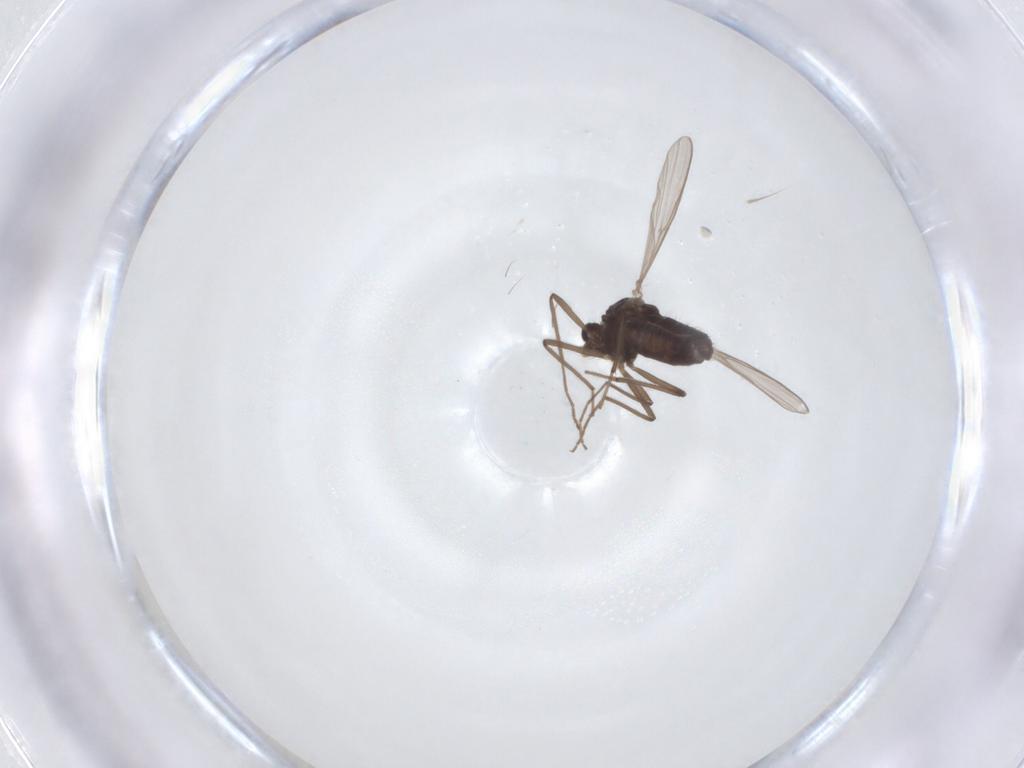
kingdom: Animalia
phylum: Arthropoda
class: Insecta
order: Diptera
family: Chironomidae
